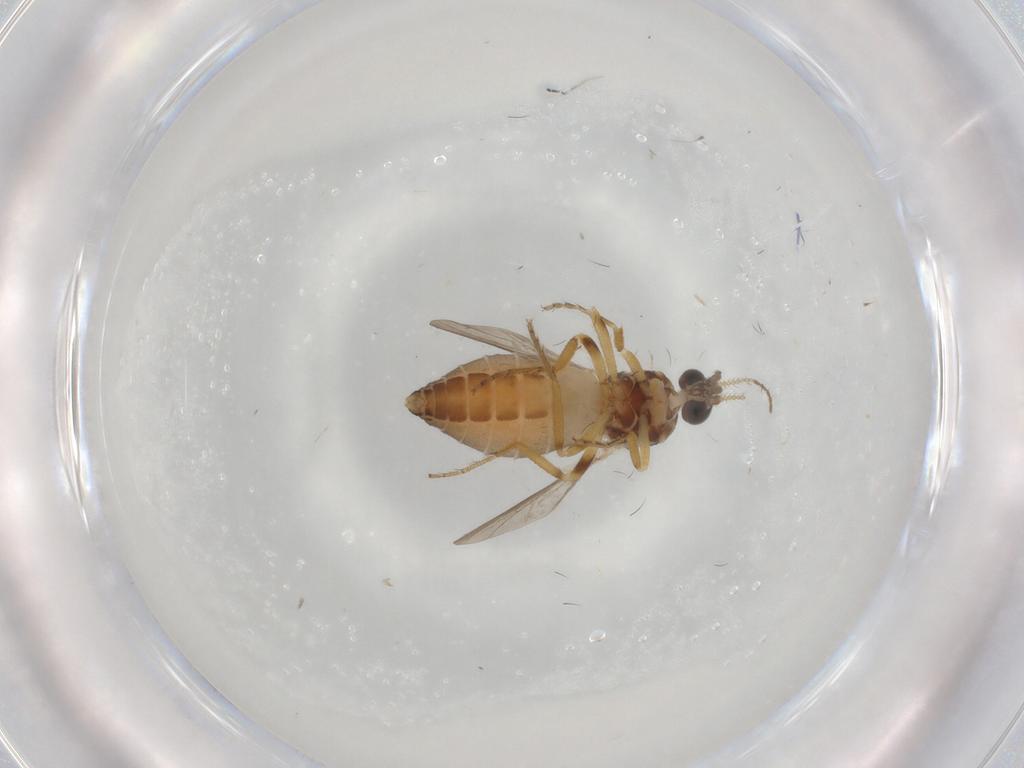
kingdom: Animalia
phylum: Arthropoda
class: Insecta
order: Diptera
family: Ceratopogonidae
